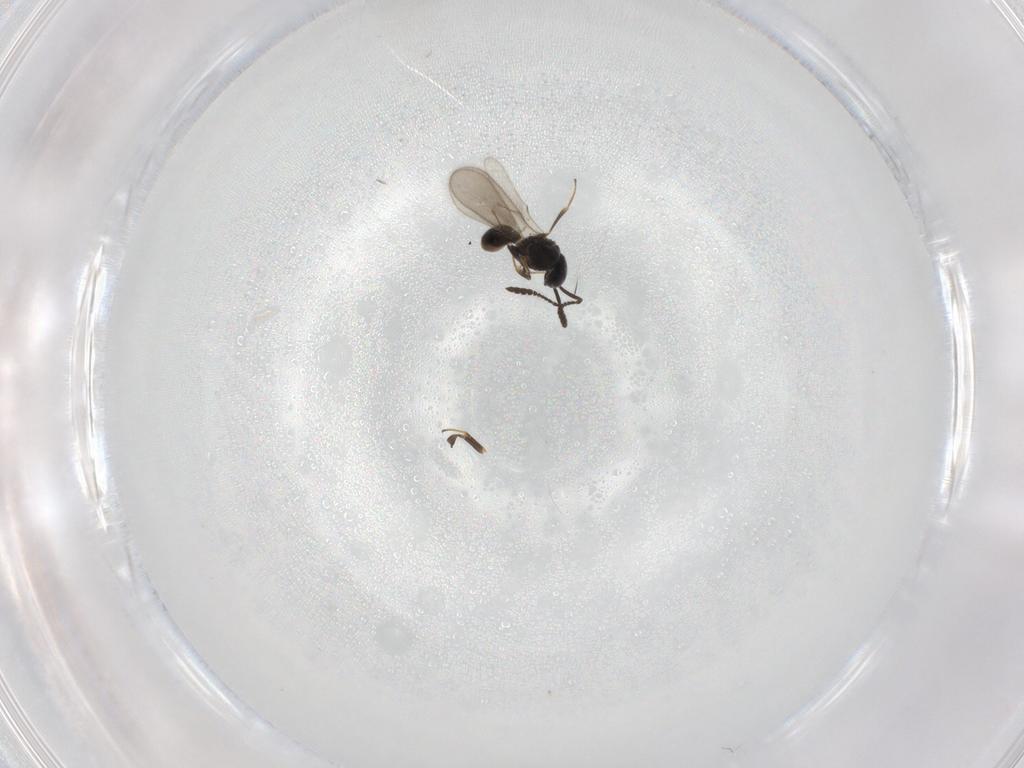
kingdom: Animalia
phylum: Arthropoda
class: Insecta
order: Hymenoptera
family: Scelionidae
